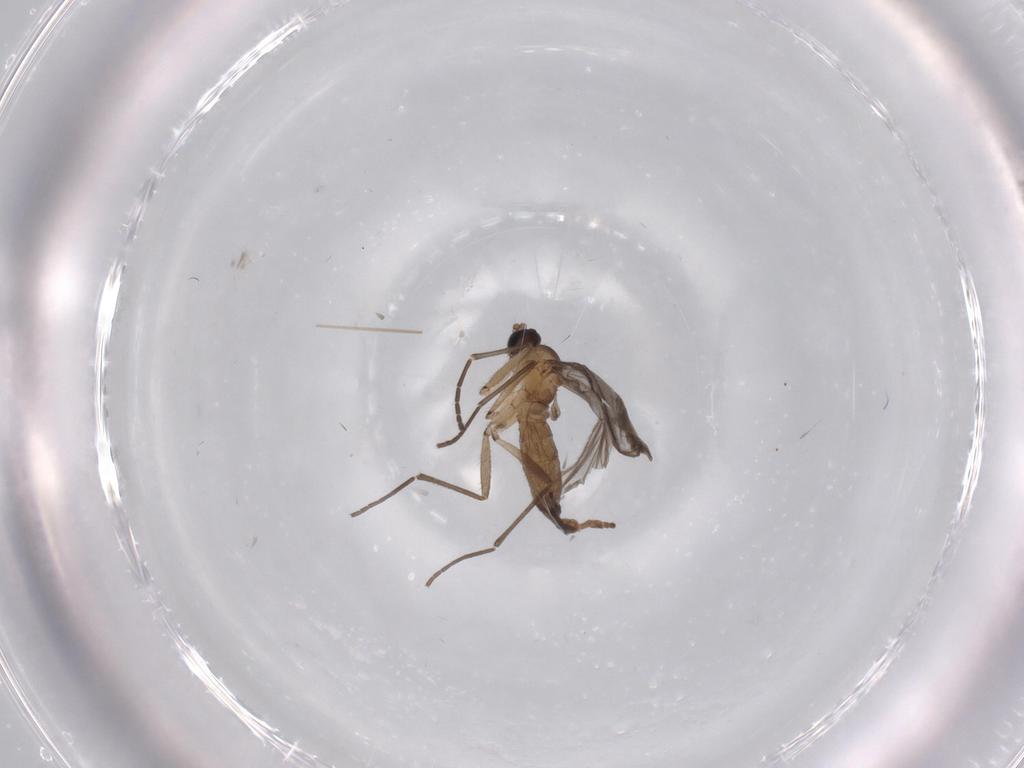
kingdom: Animalia
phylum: Arthropoda
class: Insecta
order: Diptera
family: Sciaridae
